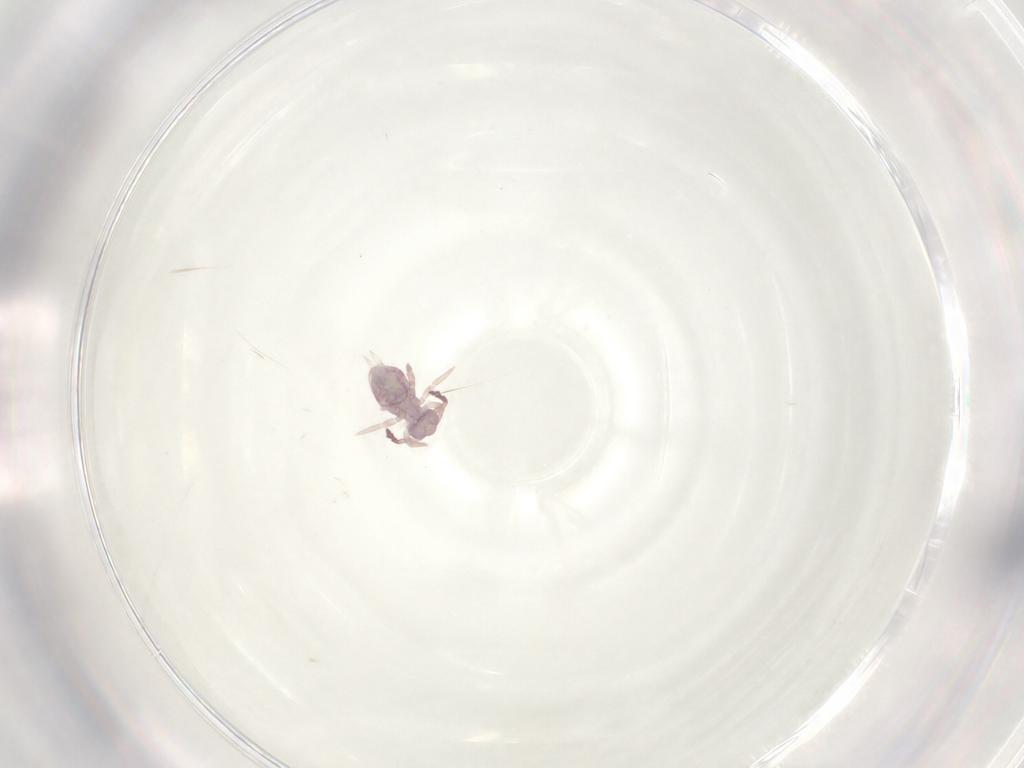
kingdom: Animalia
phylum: Arthropoda
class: Collembola
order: Symphypleona
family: Dicyrtomidae
